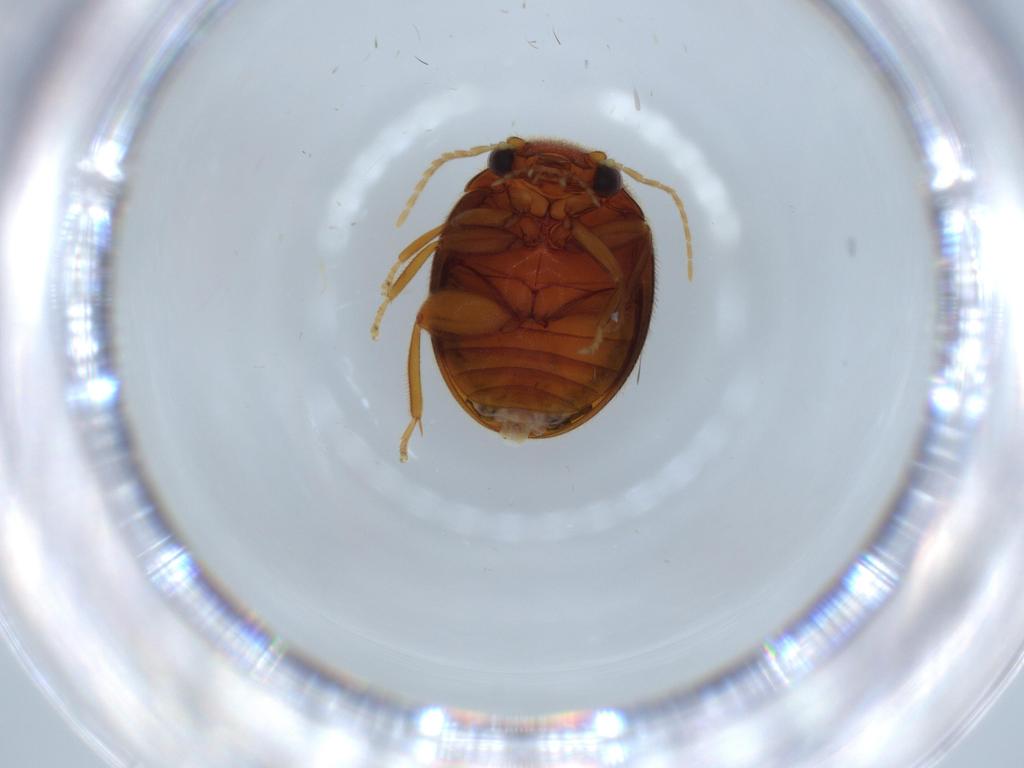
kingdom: Animalia
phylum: Arthropoda
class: Insecta
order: Coleoptera
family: Scirtidae
